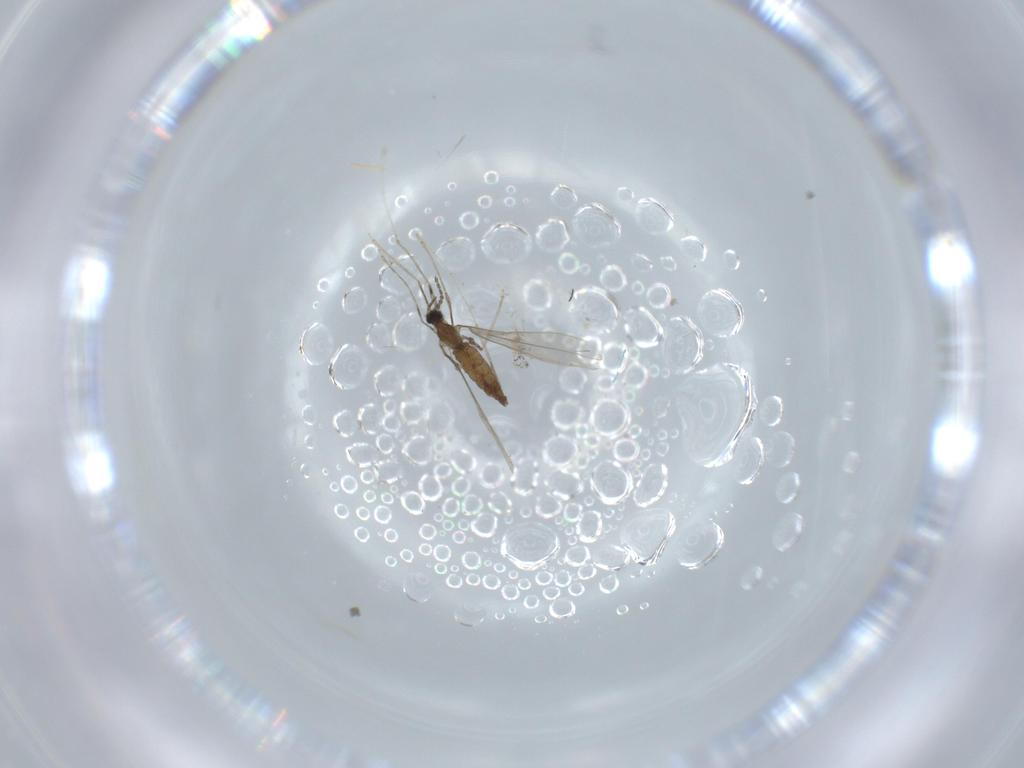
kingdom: Animalia
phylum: Arthropoda
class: Insecta
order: Diptera
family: Cecidomyiidae
